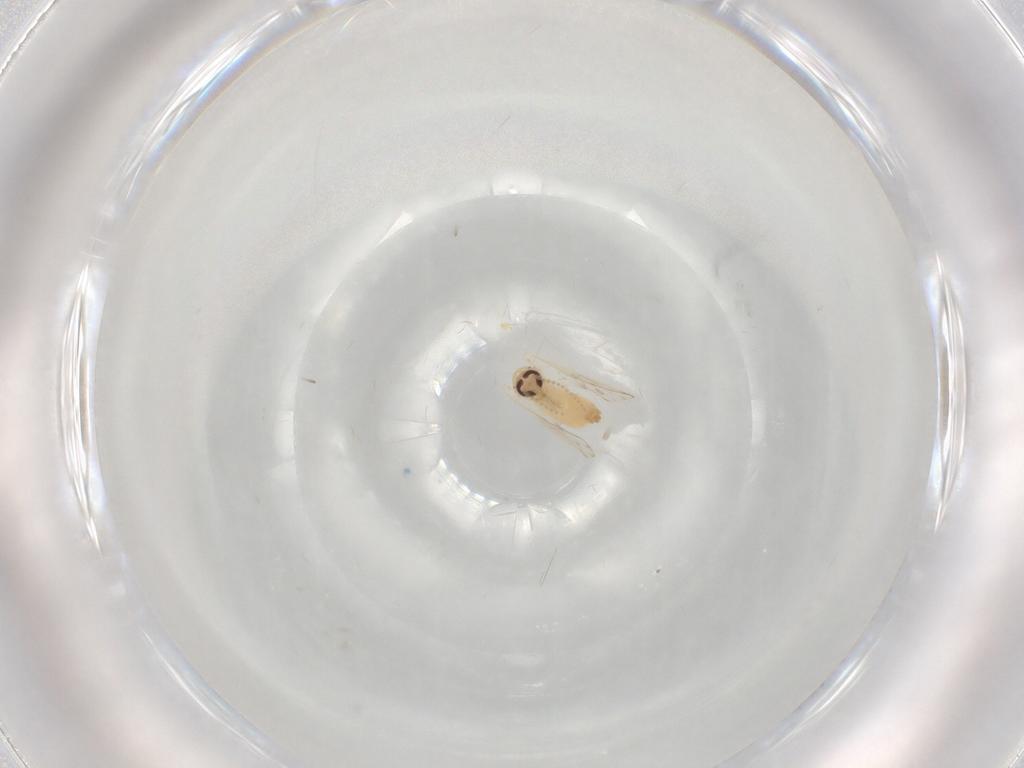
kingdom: Animalia
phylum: Arthropoda
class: Insecta
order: Diptera
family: Psychodidae
